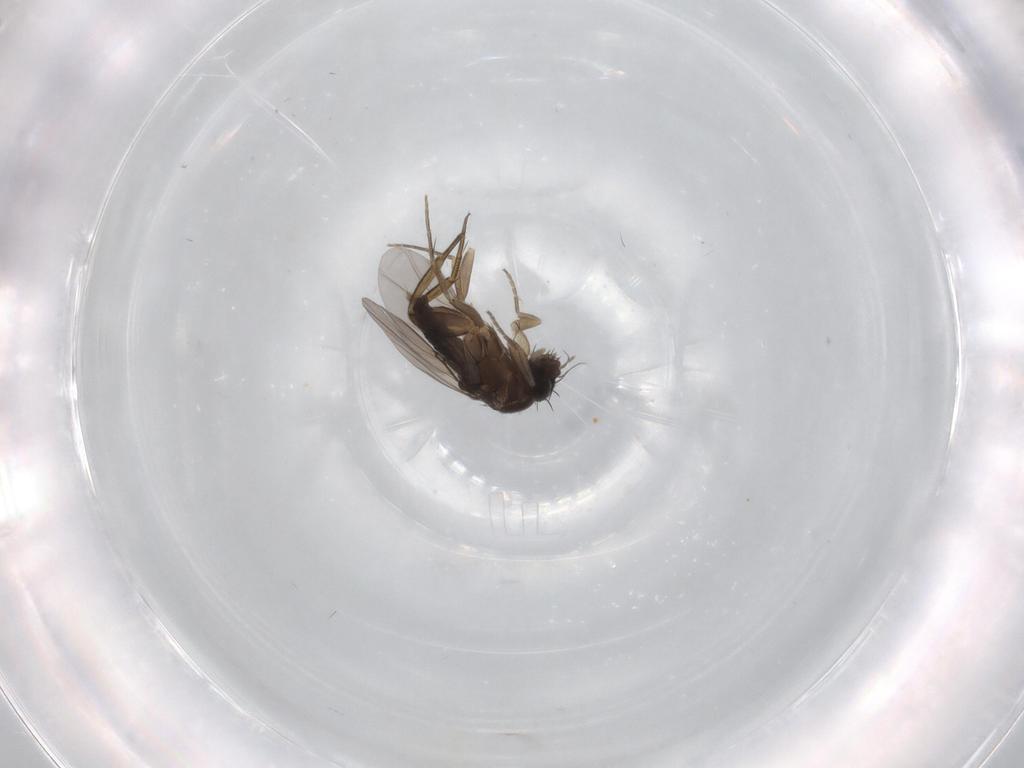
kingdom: Animalia
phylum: Arthropoda
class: Insecta
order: Diptera
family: Phoridae
